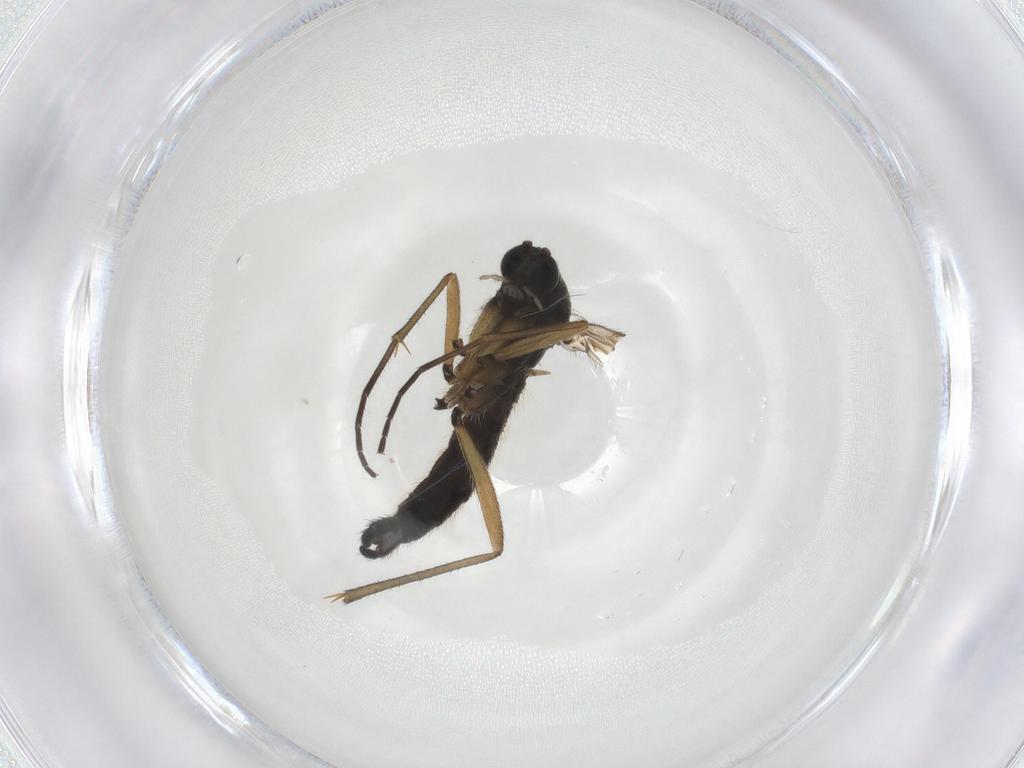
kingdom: Animalia
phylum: Arthropoda
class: Insecta
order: Diptera
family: Sciaridae
